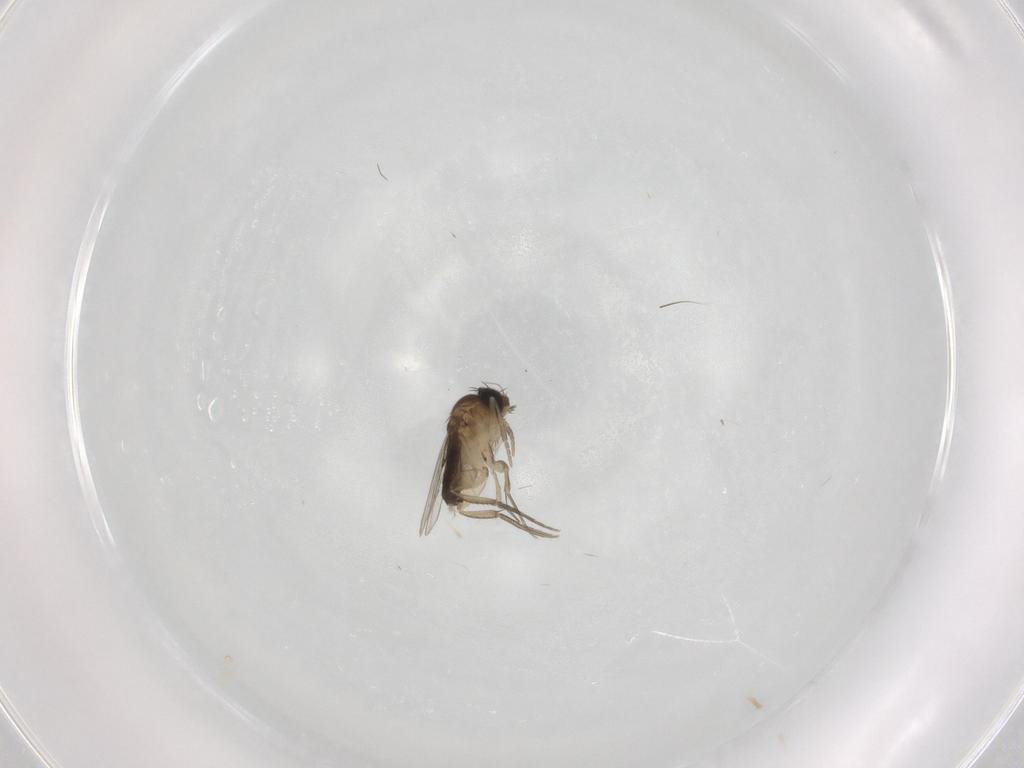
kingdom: Animalia
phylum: Arthropoda
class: Insecta
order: Diptera
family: Phoridae
